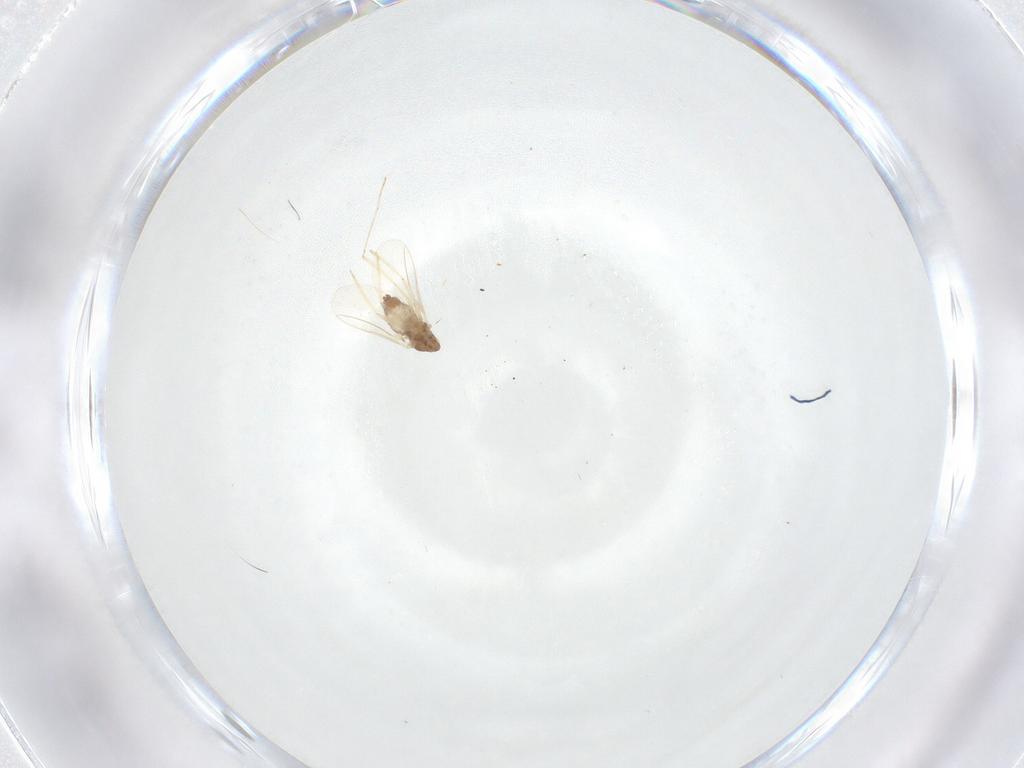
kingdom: Animalia
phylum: Arthropoda
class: Insecta
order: Diptera
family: Cecidomyiidae
